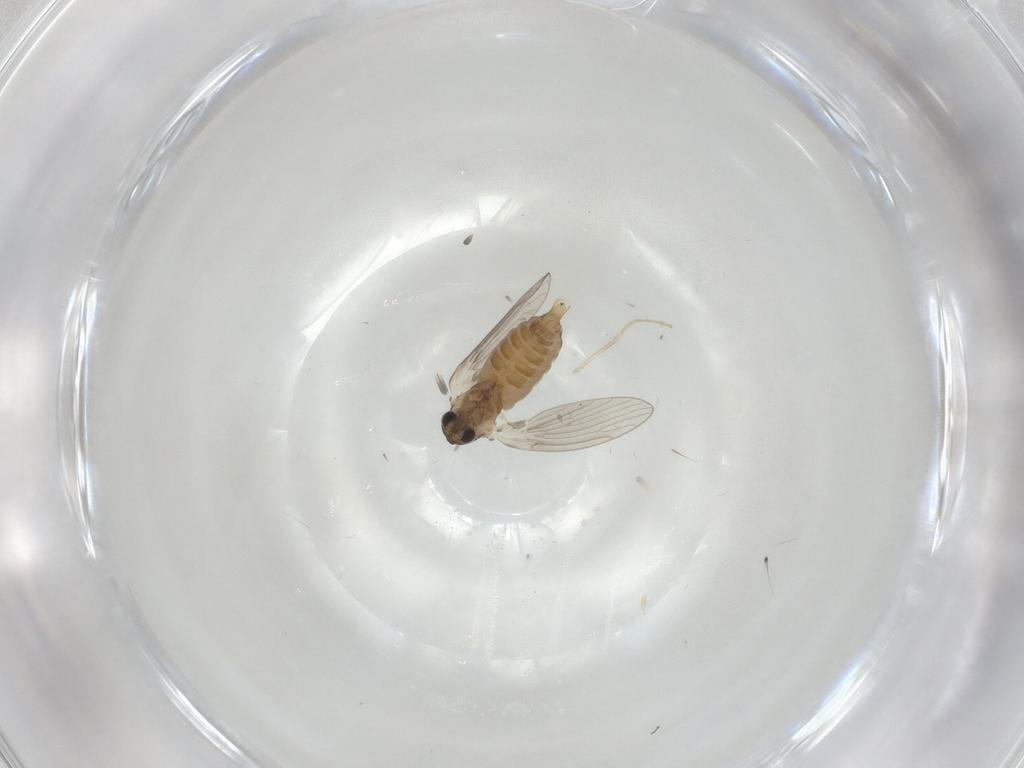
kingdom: Animalia
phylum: Arthropoda
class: Insecta
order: Diptera
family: Psychodidae
